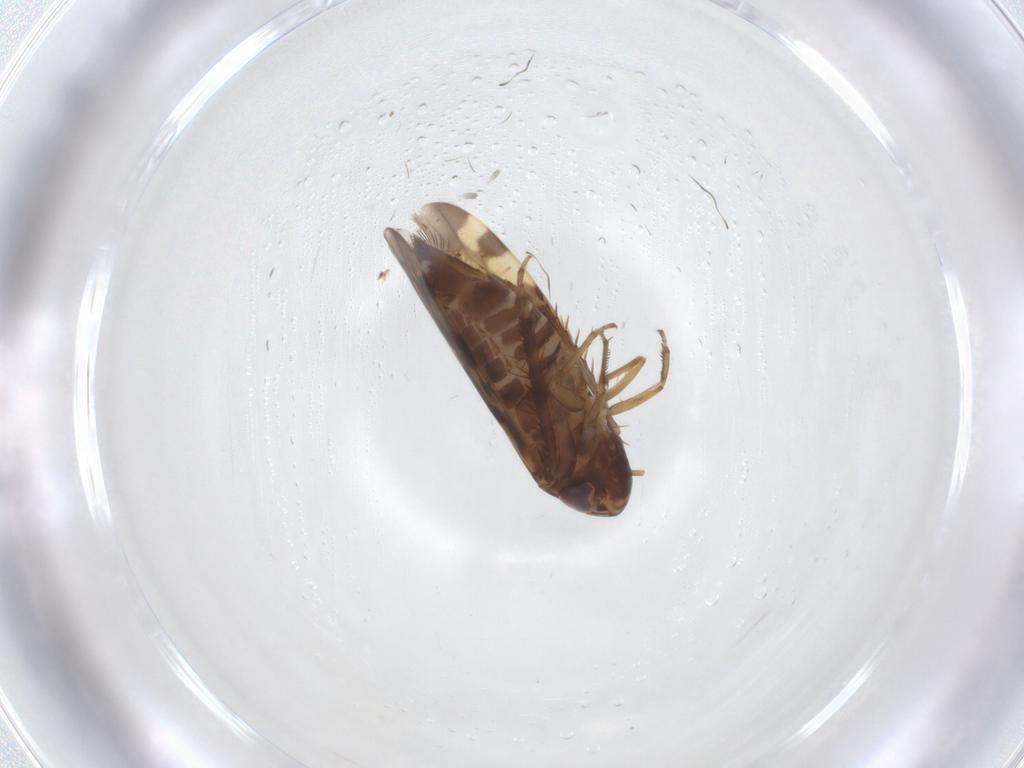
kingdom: Animalia
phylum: Arthropoda
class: Insecta
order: Hemiptera
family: Cicadellidae
